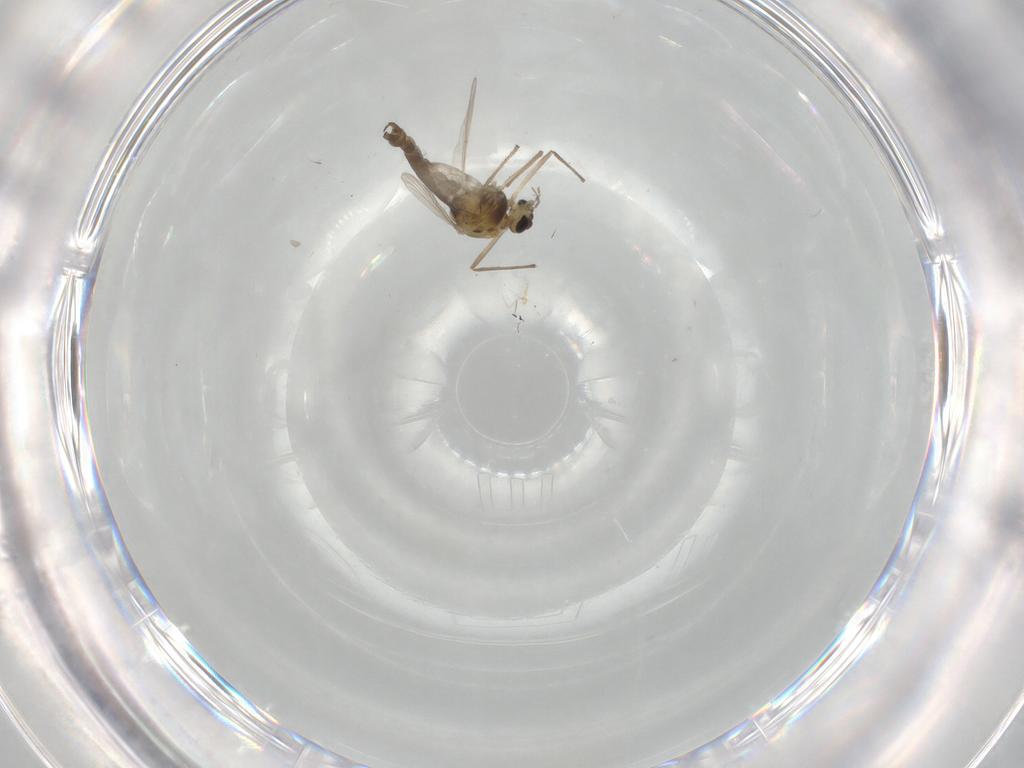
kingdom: Animalia
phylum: Arthropoda
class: Insecta
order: Diptera
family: Chironomidae
